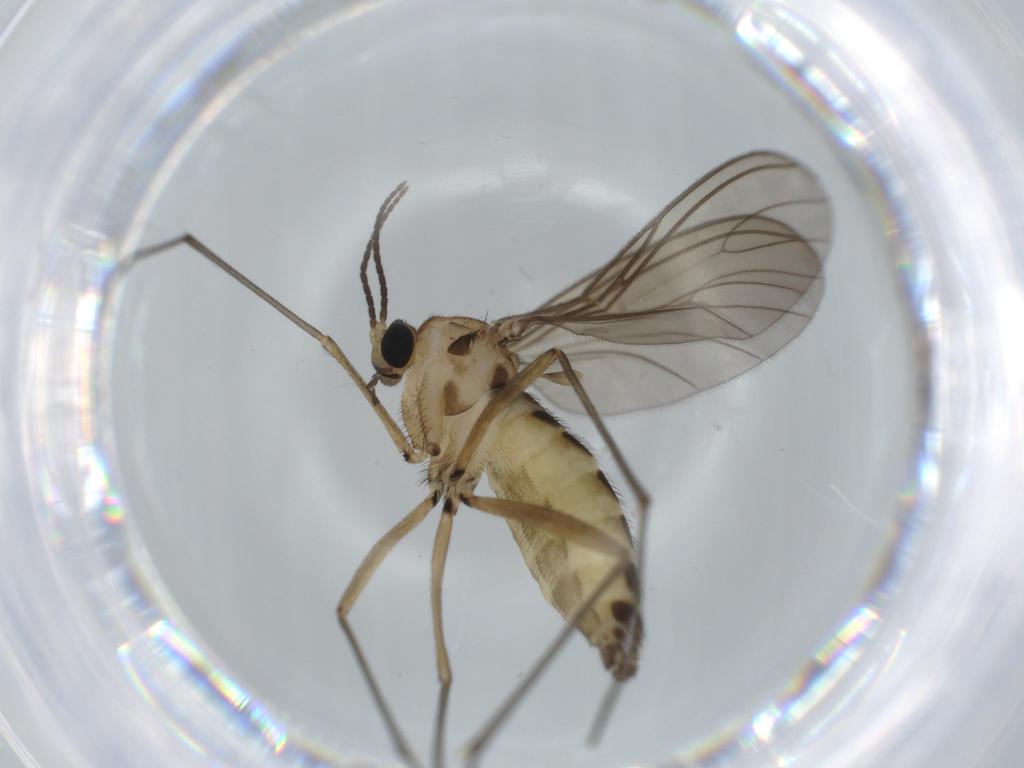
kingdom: Animalia
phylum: Arthropoda
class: Insecta
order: Diptera
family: Sciaridae
